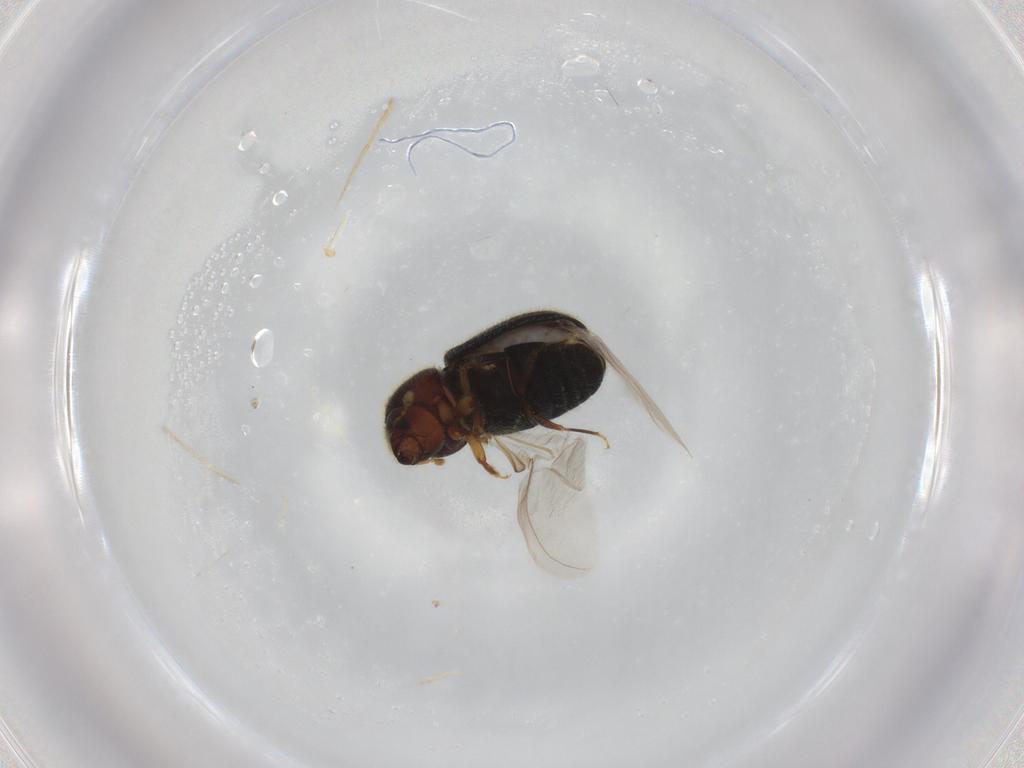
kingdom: Animalia
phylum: Arthropoda
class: Insecta
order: Coleoptera
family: Curculionidae
